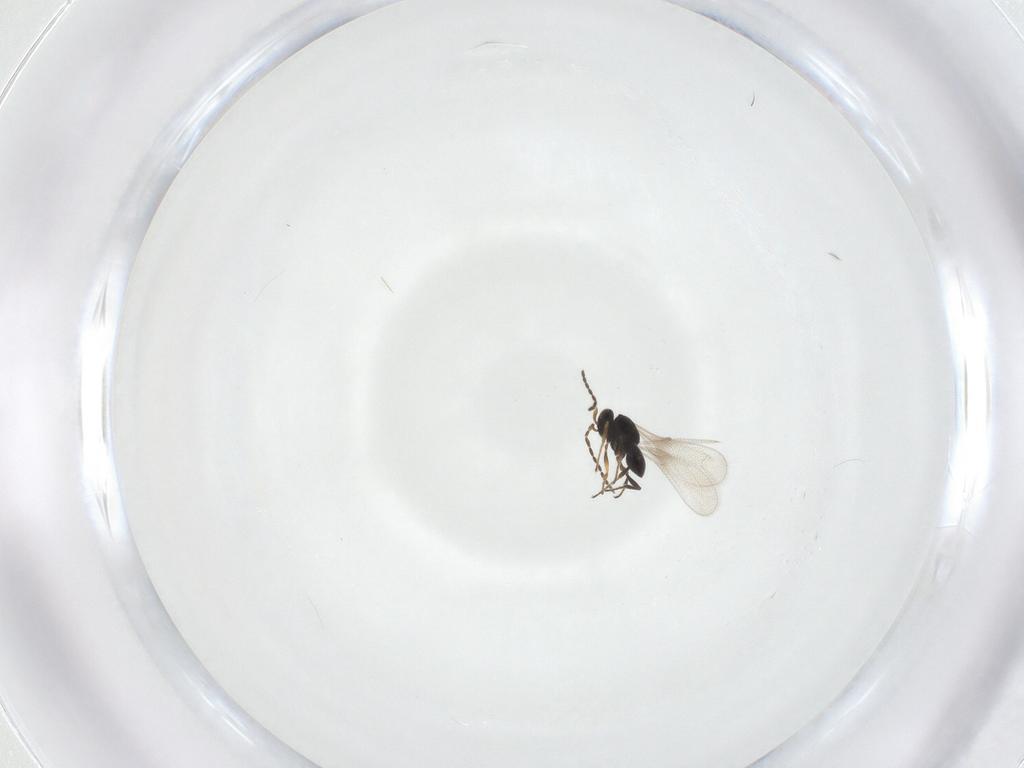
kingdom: Animalia
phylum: Arthropoda
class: Insecta
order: Hymenoptera
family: Platygastridae
